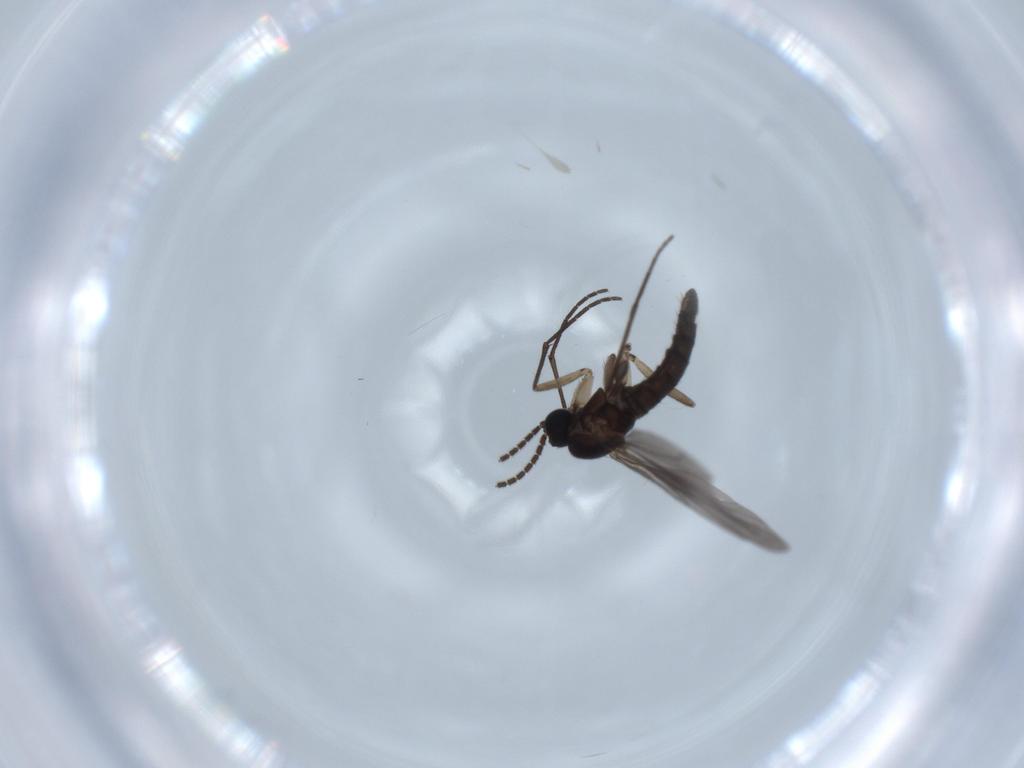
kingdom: Animalia
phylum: Arthropoda
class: Insecta
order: Diptera
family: Sciaridae
